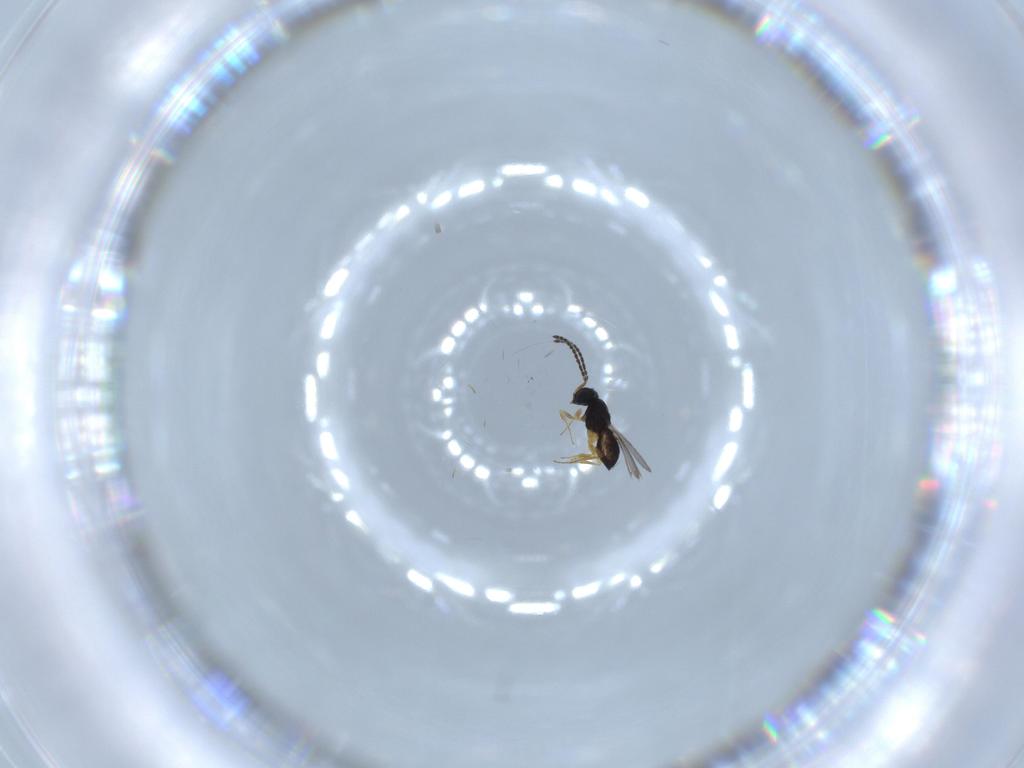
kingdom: Animalia
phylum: Arthropoda
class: Insecta
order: Hymenoptera
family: Scelionidae
